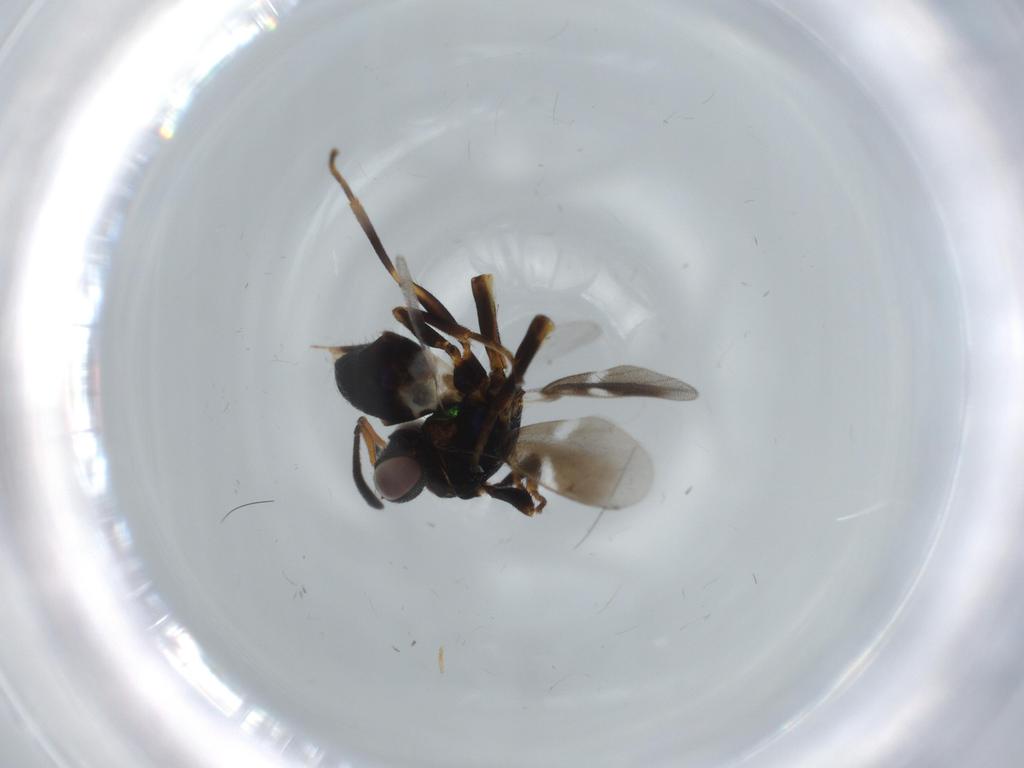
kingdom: Animalia
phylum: Arthropoda
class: Insecta
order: Hymenoptera
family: Eupelmidae
